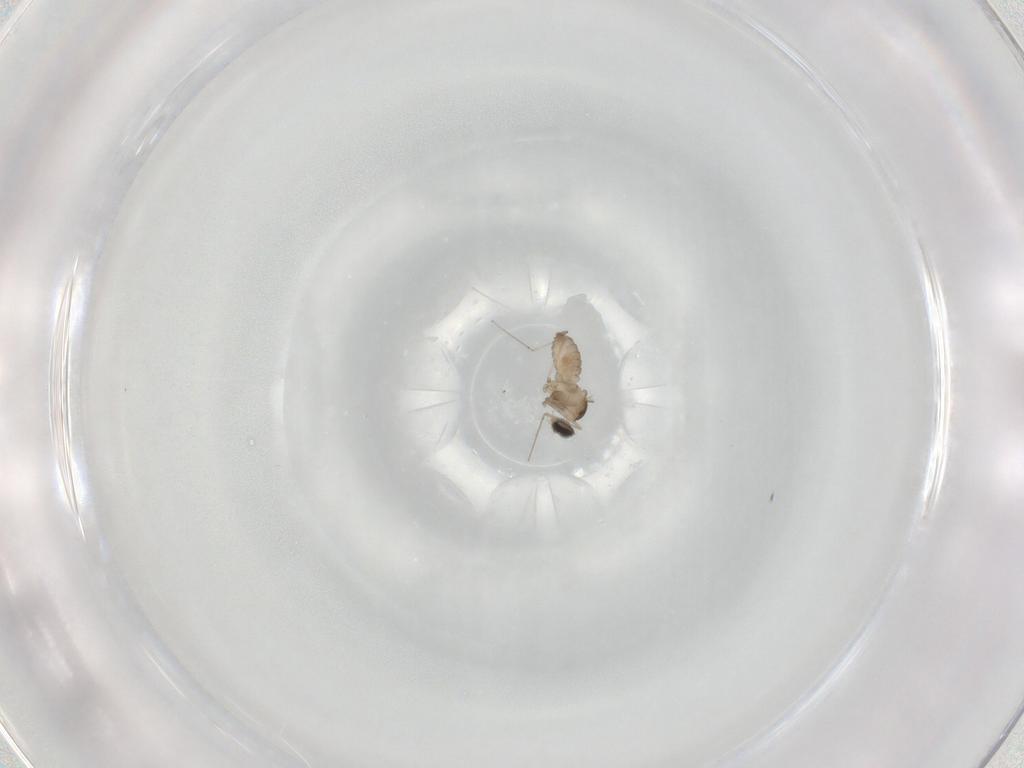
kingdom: Animalia
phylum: Arthropoda
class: Insecta
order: Diptera
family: Cecidomyiidae
